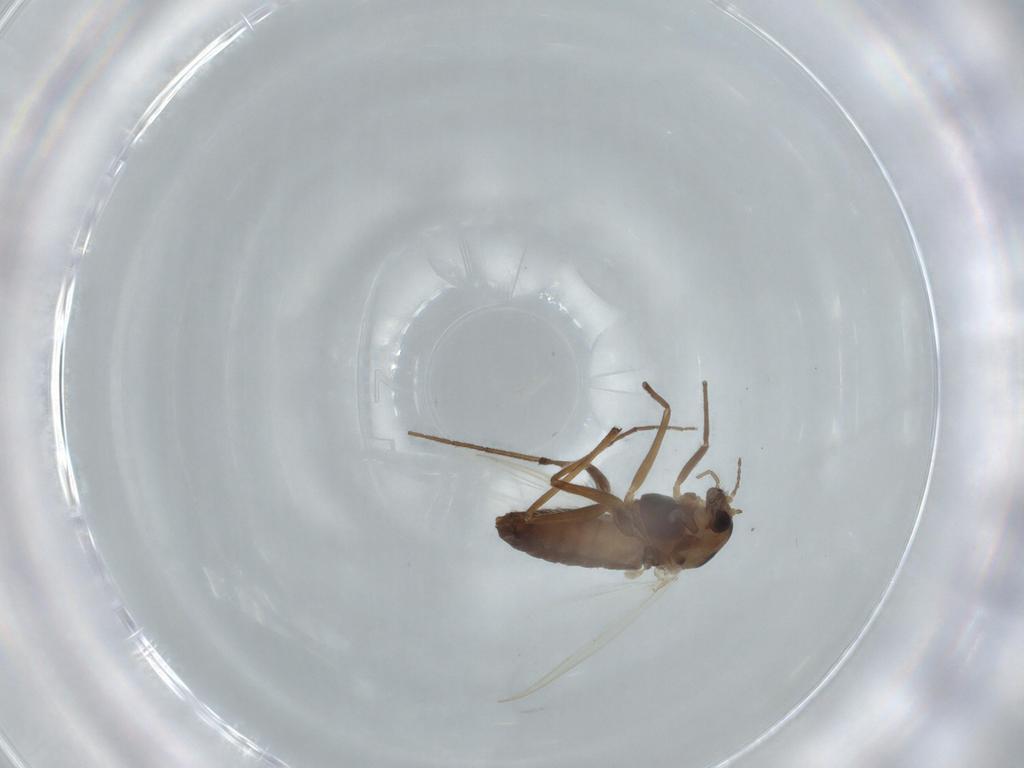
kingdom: Animalia
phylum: Arthropoda
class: Insecta
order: Diptera
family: Chironomidae
